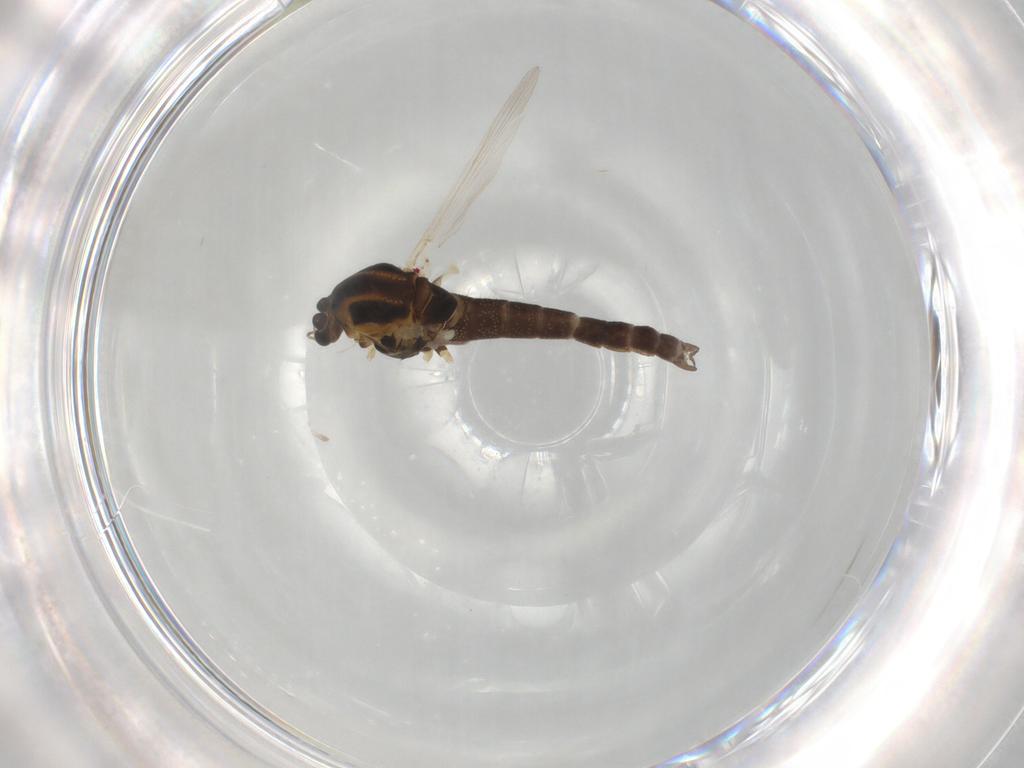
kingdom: Animalia
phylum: Arthropoda
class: Insecta
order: Diptera
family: Chironomidae
